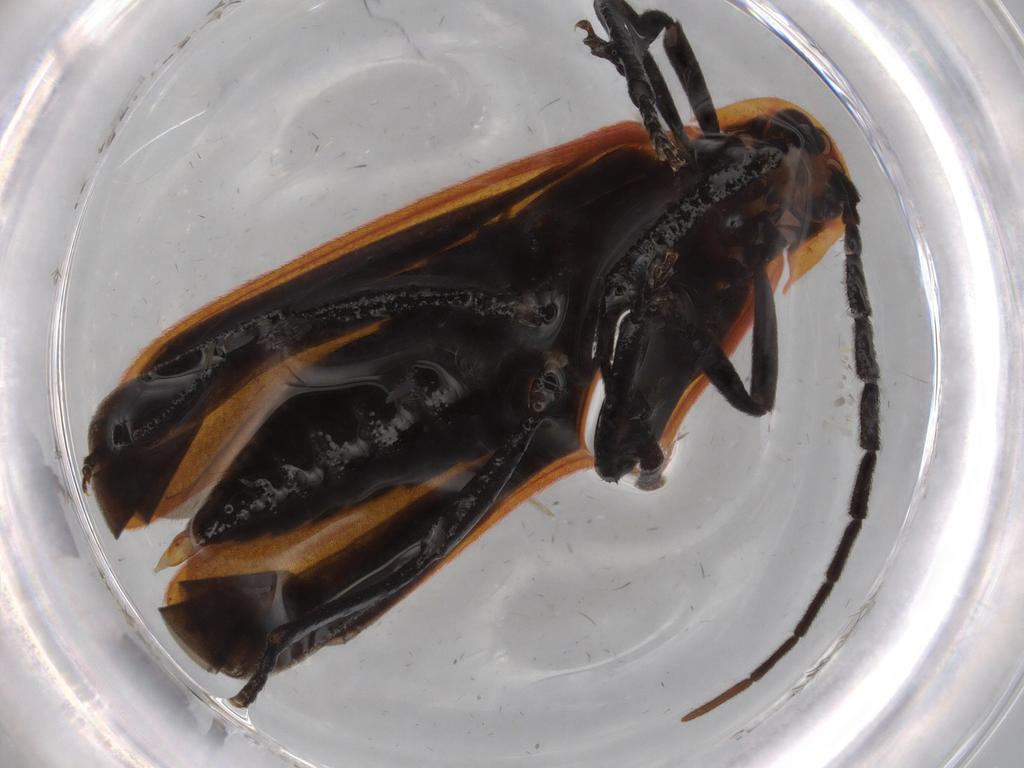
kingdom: Animalia
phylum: Arthropoda
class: Insecta
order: Coleoptera
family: Lycidae
